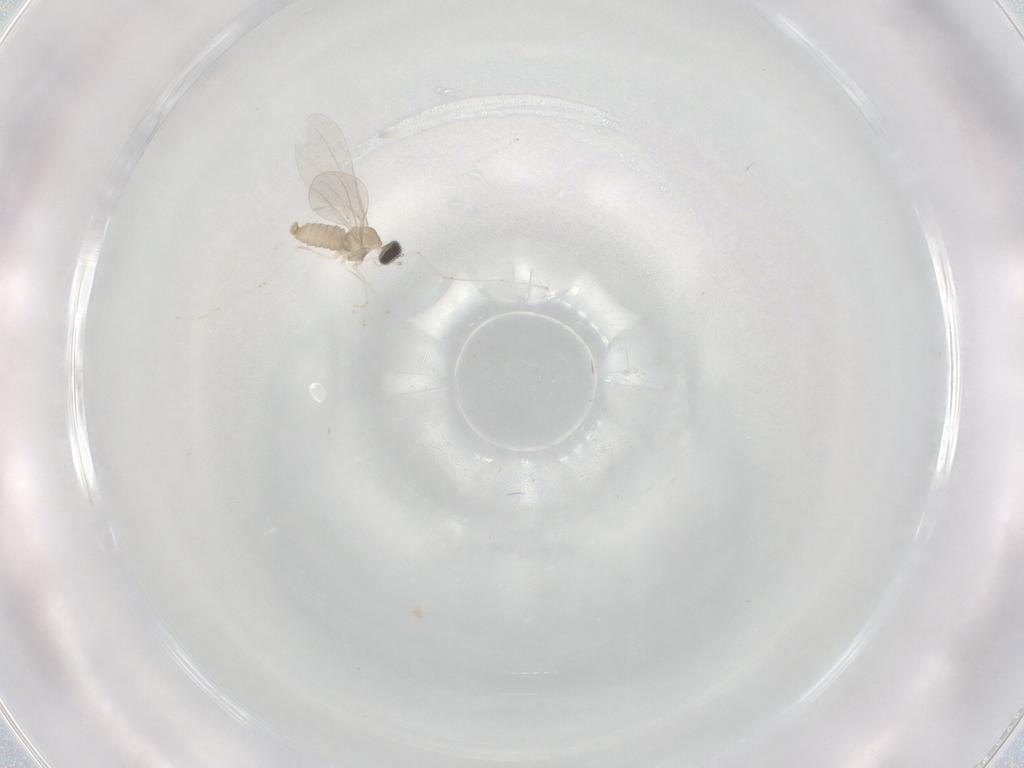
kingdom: Animalia
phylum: Arthropoda
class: Insecta
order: Diptera
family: Cecidomyiidae
